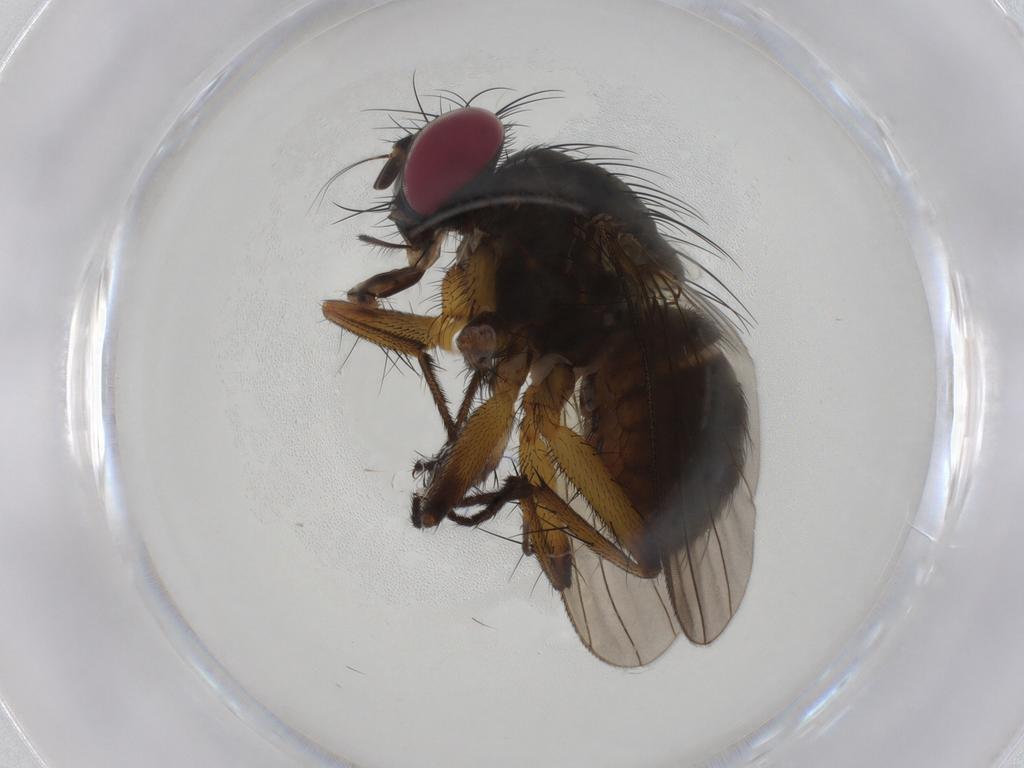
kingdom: Animalia
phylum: Arthropoda
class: Insecta
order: Diptera
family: Muscidae
